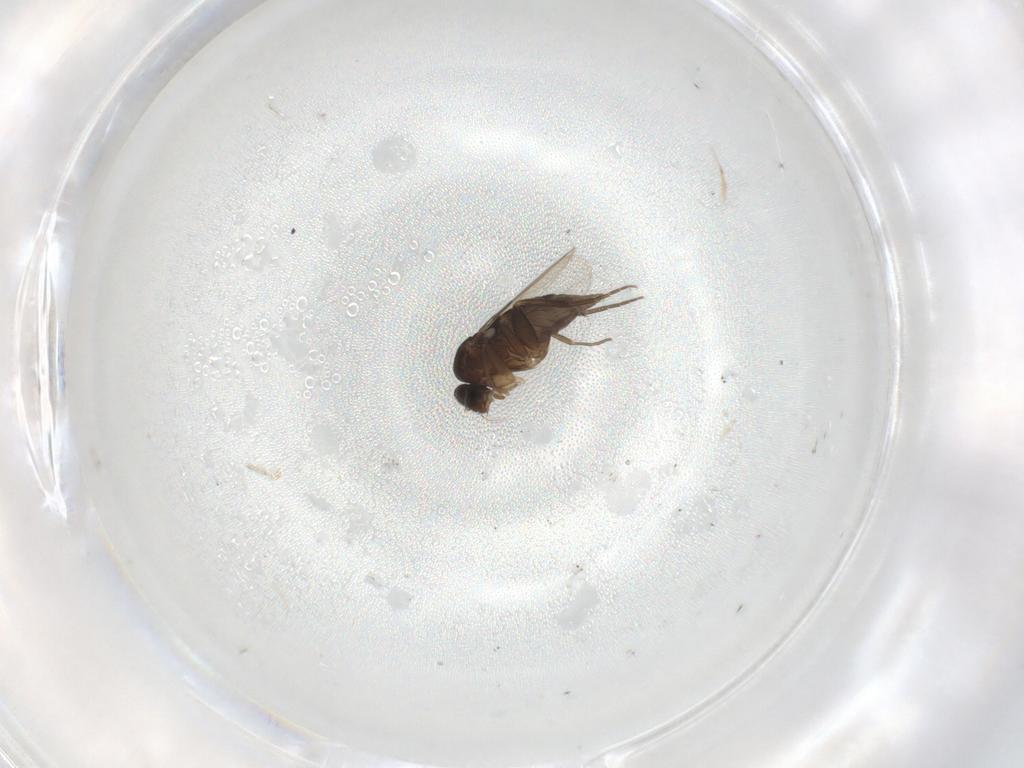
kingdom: Animalia
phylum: Arthropoda
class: Insecta
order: Diptera
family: Phoridae
